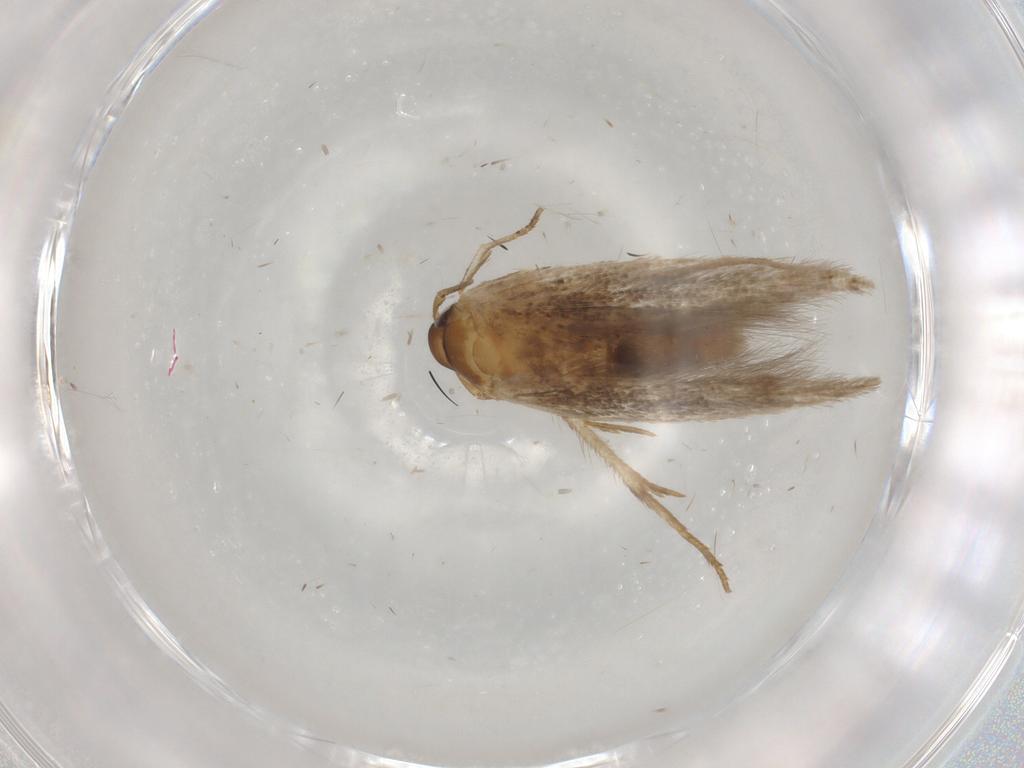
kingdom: Animalia
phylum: Arthropoda
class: Insecta
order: Lepidoptera
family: Cosmopterigidae
